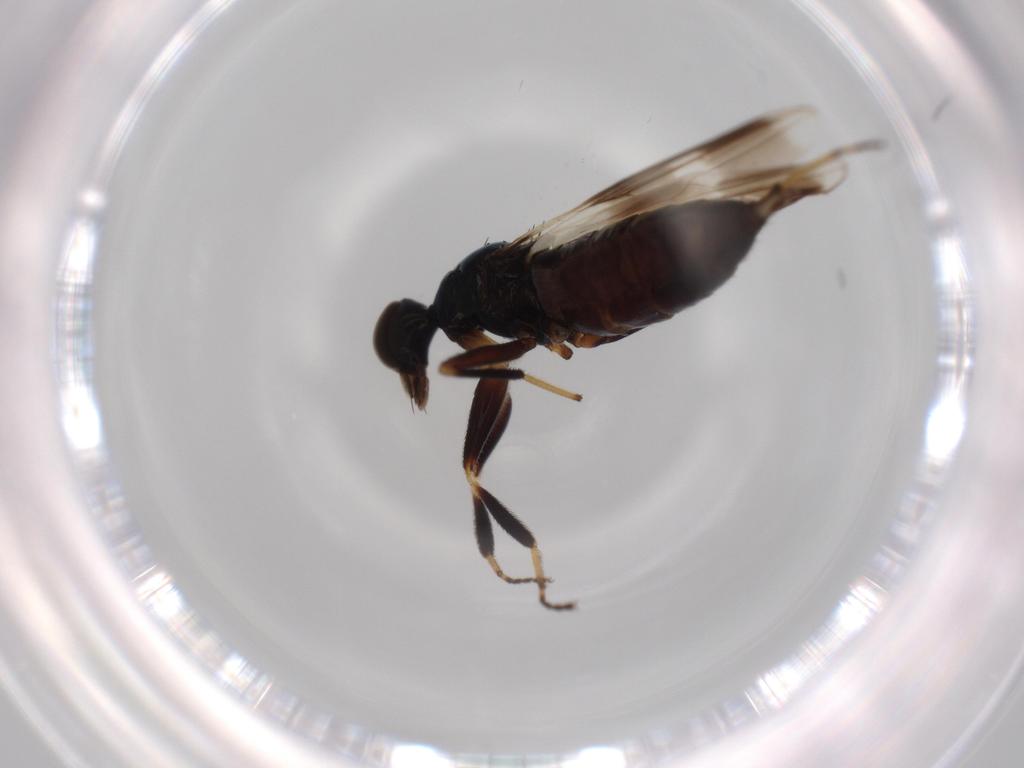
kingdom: Animalia
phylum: Arthropoda
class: Insecta
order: Diptera
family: Hybotidae
